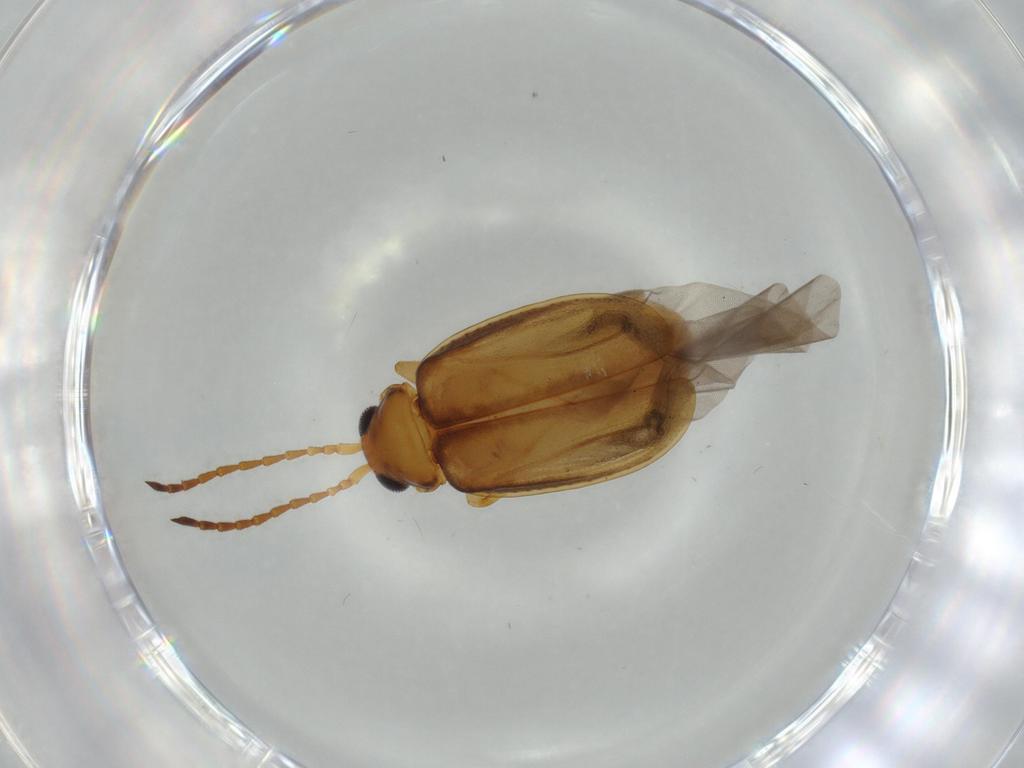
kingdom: Animalia
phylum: Arthropoda
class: Insecta
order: Coleoptera
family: Chrysomelidae
